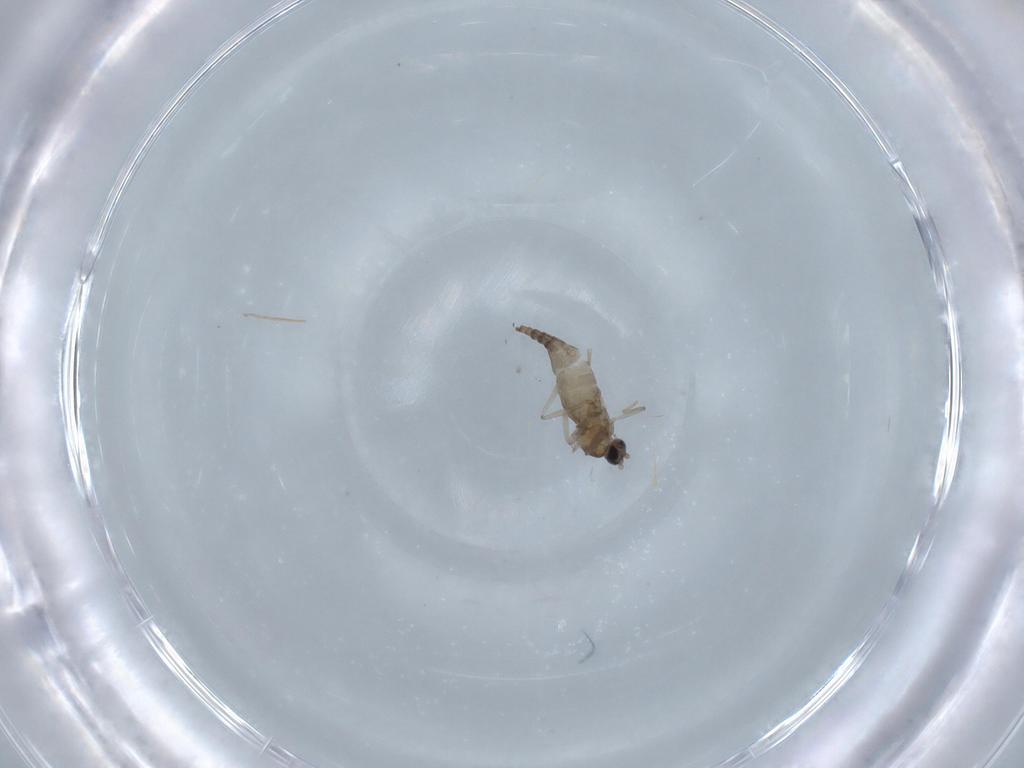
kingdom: Animalia
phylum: Arthropoda
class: Insecta
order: Diptera
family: Cecidomyiidae
